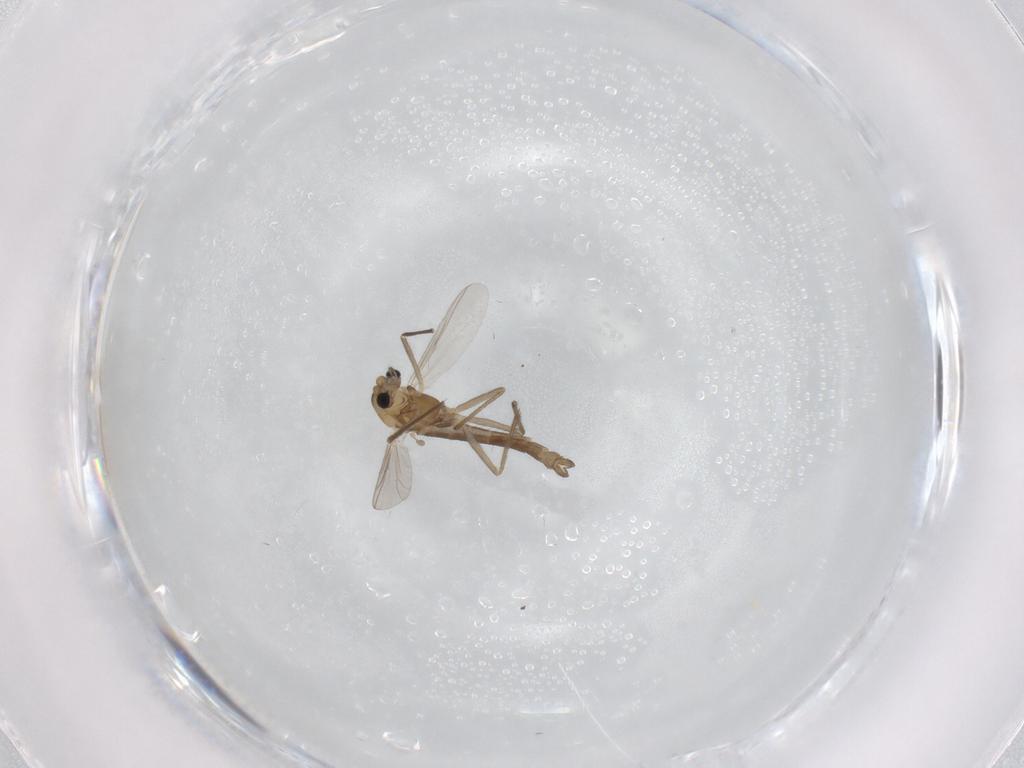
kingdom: Animalia
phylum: Arthropoda
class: Insecta
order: Diptera
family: Chironomidae
